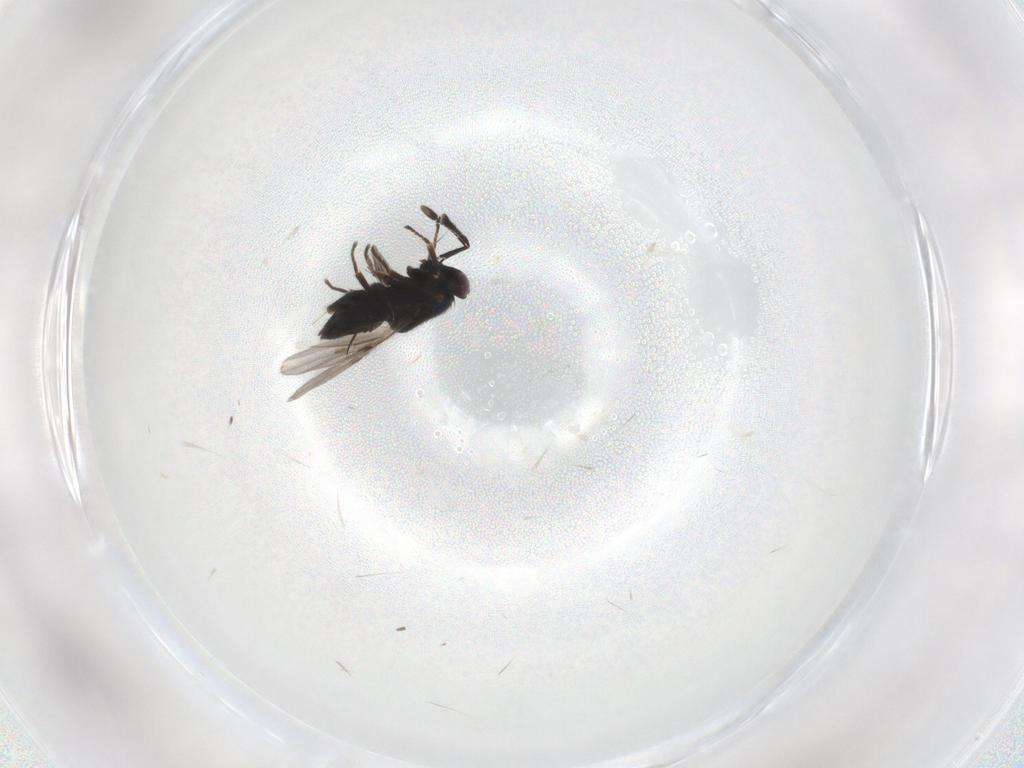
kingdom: Animalia
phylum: Arthropoda
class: Insecta
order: Hymenoptera
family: Encyrtidae
